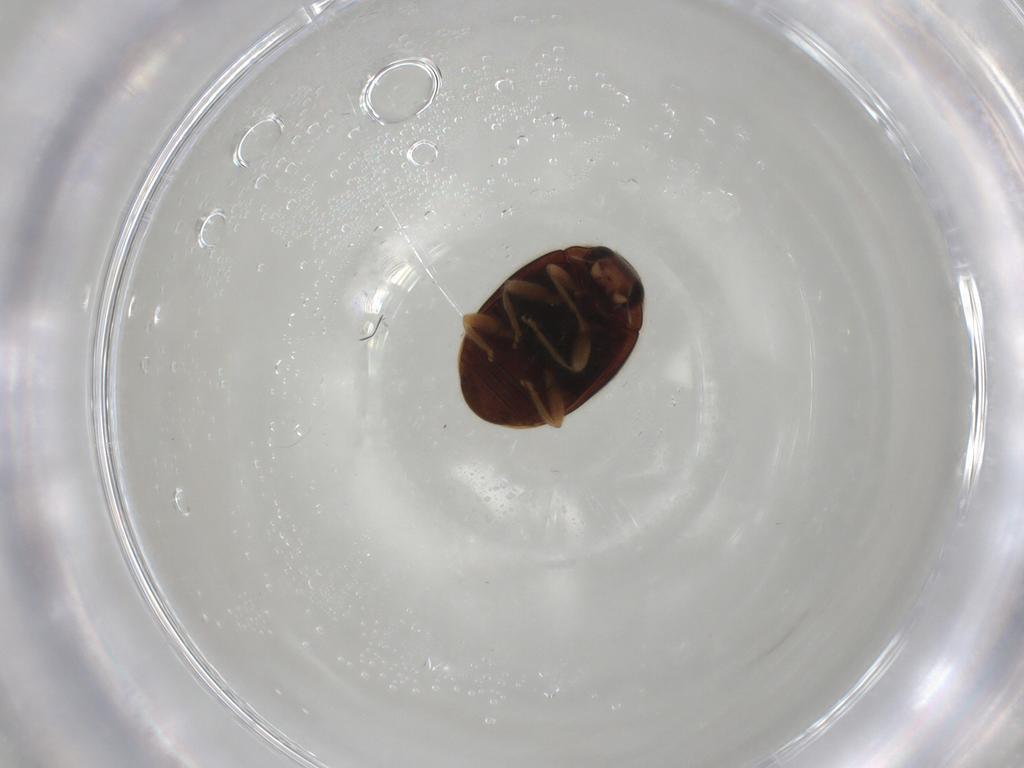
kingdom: Animalia
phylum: Arthropoda
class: Insecta
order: Coleoptera
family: Coccinellidae
